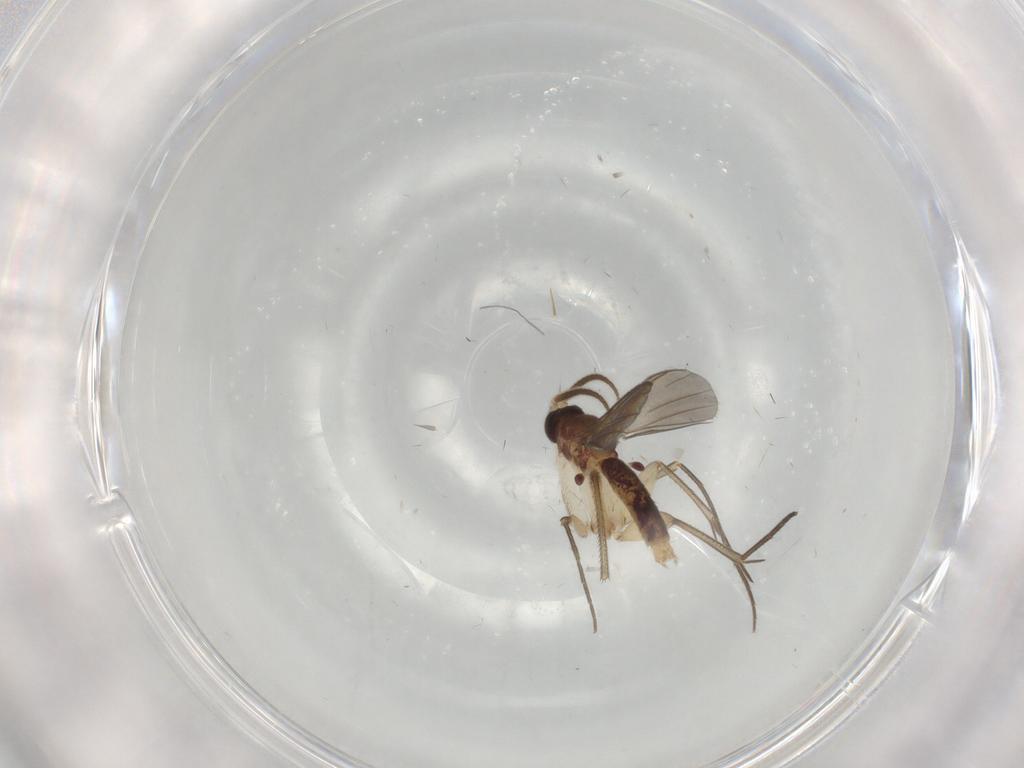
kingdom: Animalia
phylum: Arthropoda
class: Insecta
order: Diptera
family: Mycetophilidae
